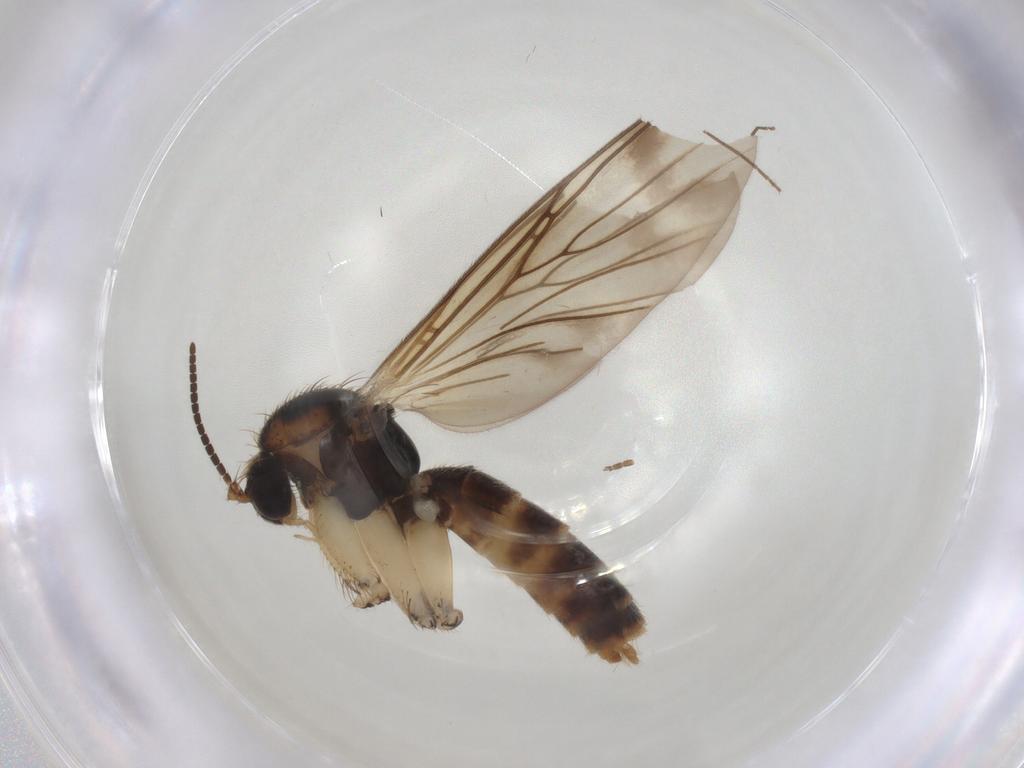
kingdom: Animalia
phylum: Arthropoda
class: Insecta
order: Diptera
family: Mycetophilidae
